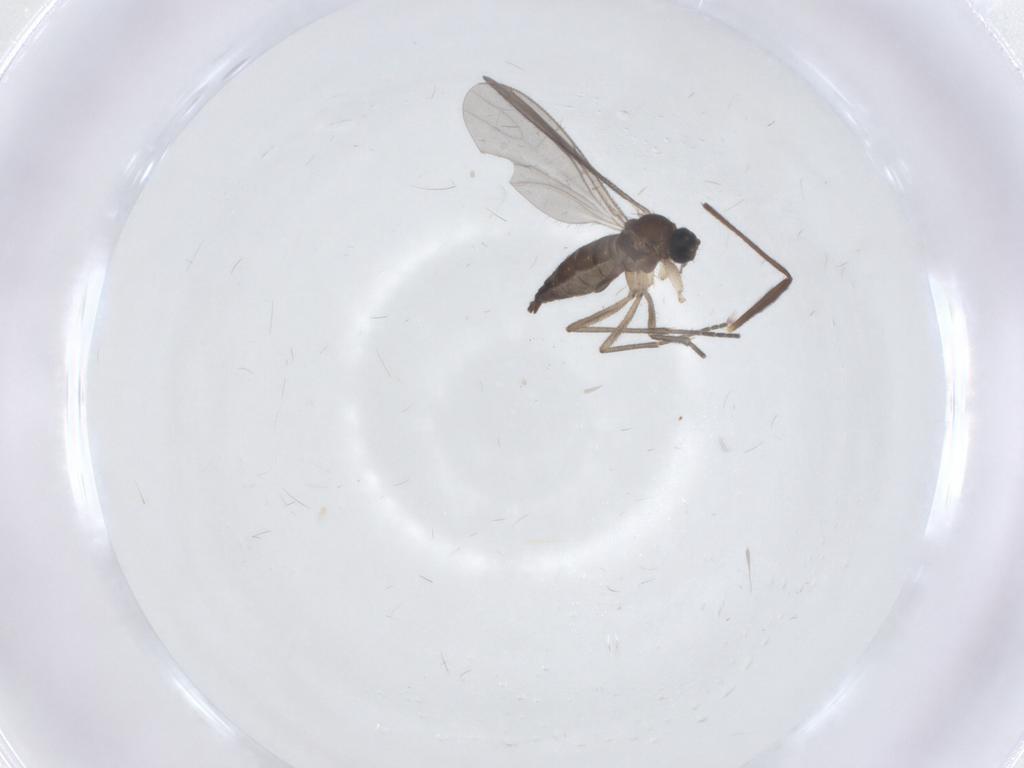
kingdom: Animalia
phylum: Arthropoda
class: Insecta
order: Diptera
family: Sciaridae
